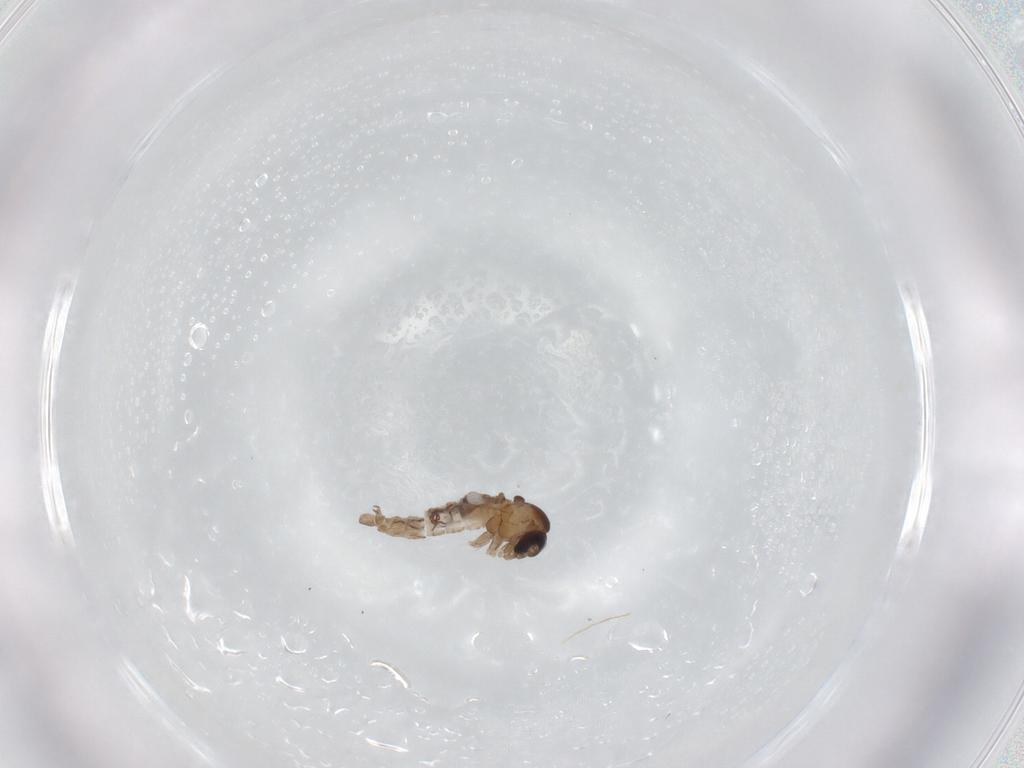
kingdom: Animalia
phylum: Arthropoda
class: Insecta
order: Diptera
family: Psychodidae
